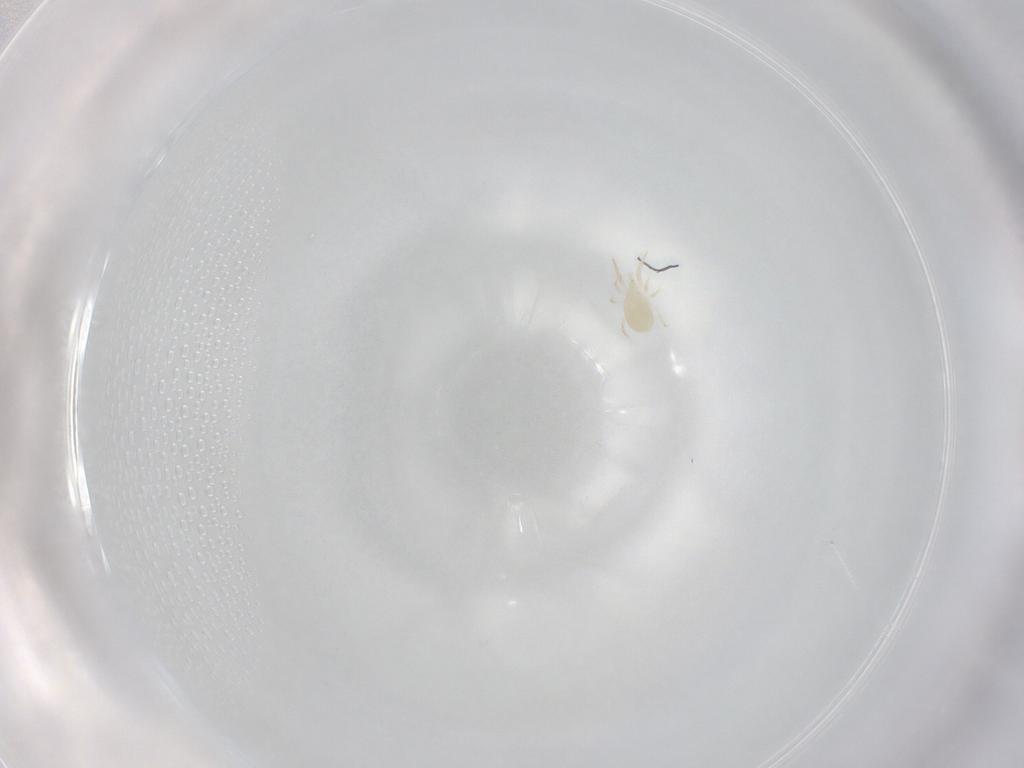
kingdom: Animalia
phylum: Arthropoda
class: Arachnida
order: Mesostigmata
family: Phytoseiidae
